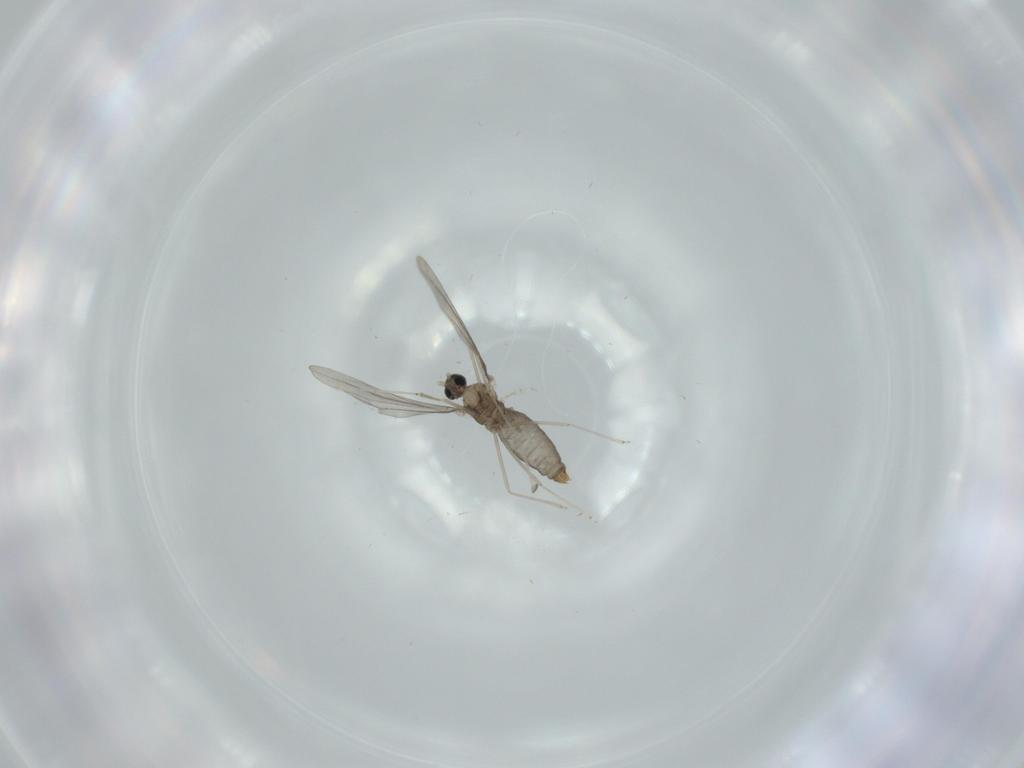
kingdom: Animalia
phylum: Arthropoda
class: Insecta
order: Diptera
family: Cecidomyiidae
